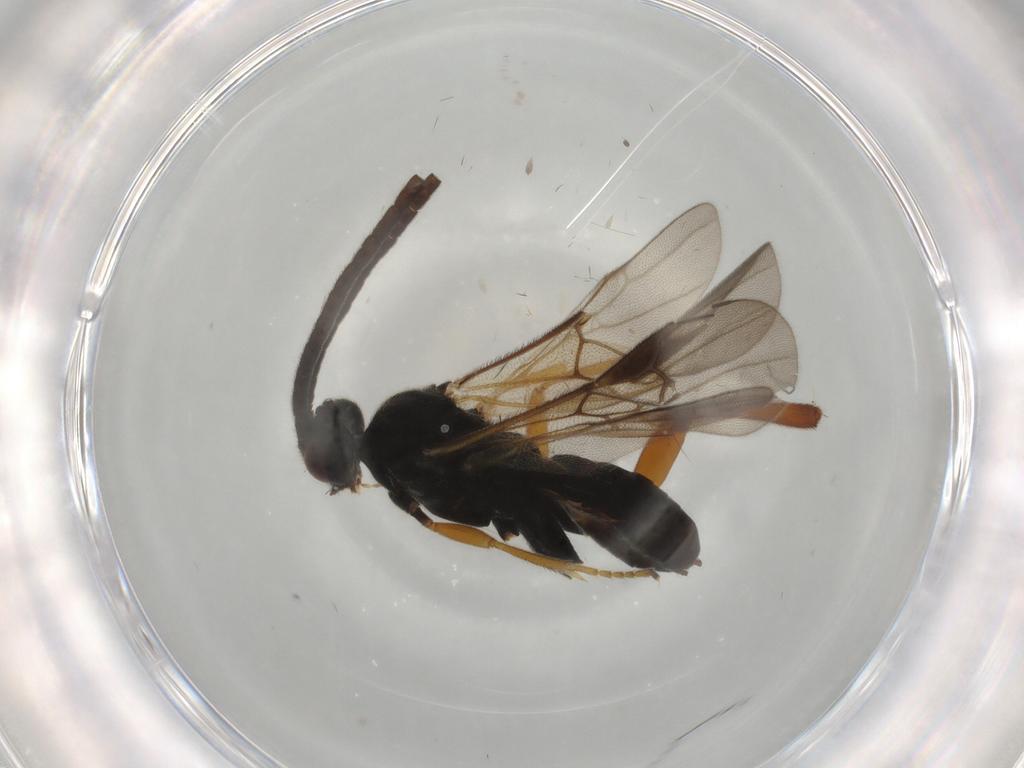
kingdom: Animalia
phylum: Arthropoda
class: Insecta
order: Hymenoptera
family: Braconidae
